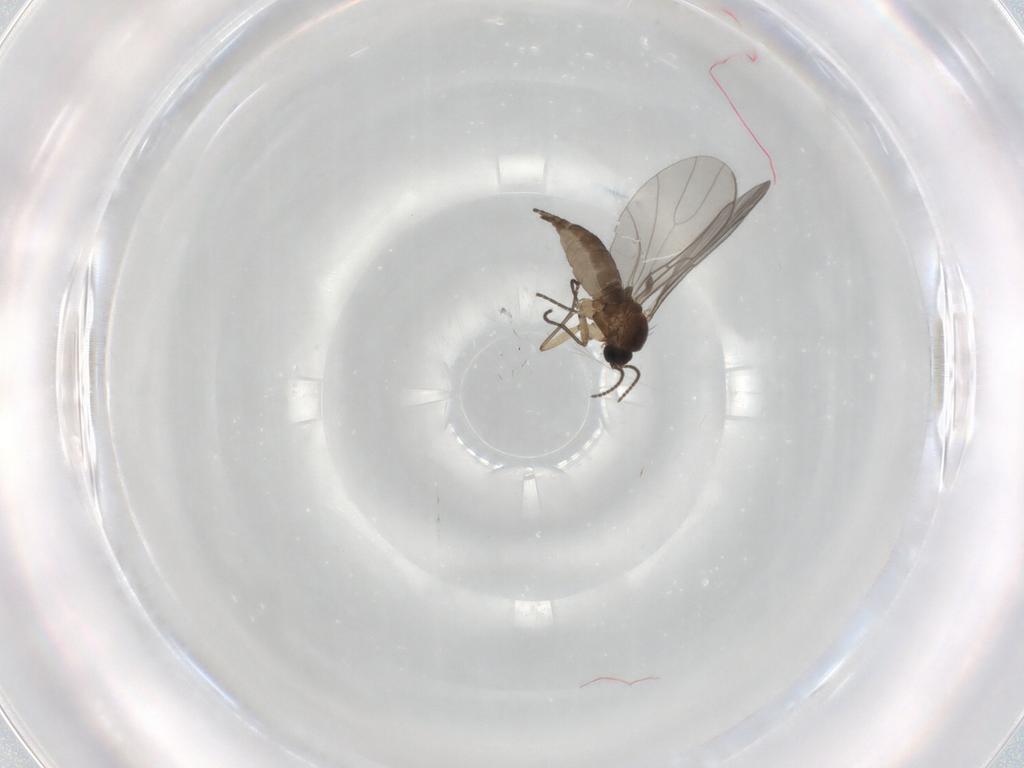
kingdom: Animalia
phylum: Arthropoda
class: Insecta
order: Diptera
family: Sciaridae
